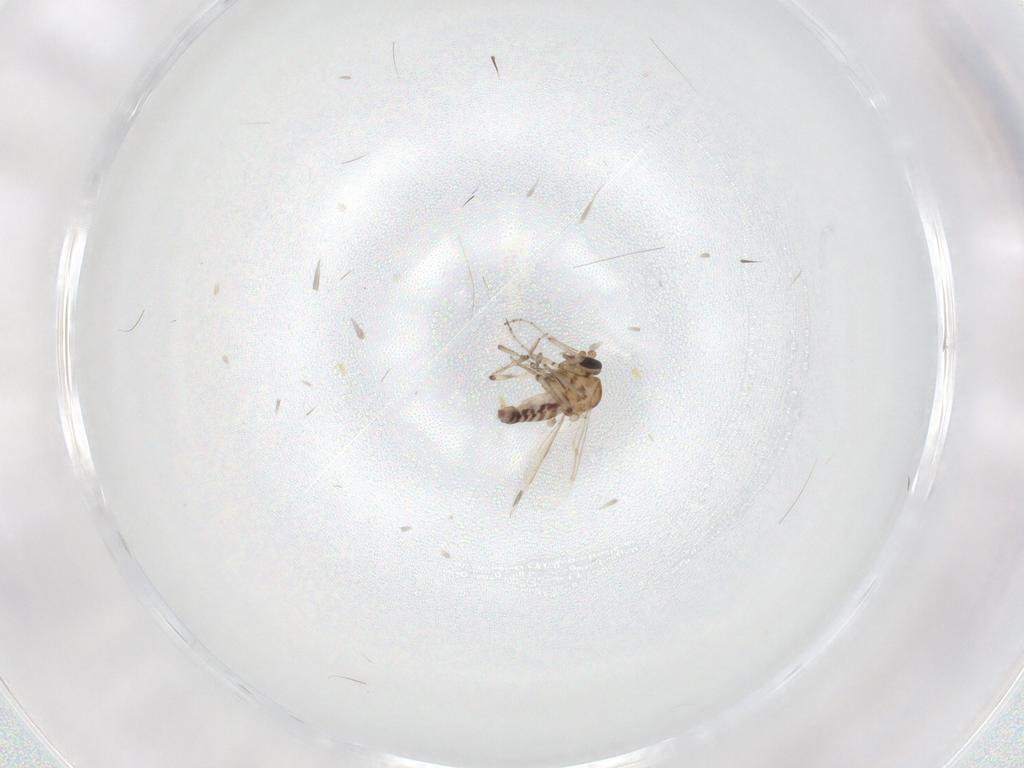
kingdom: Animalia
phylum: Arthropoda
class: Insecta
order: Diptera
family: Ceratopogonidae
